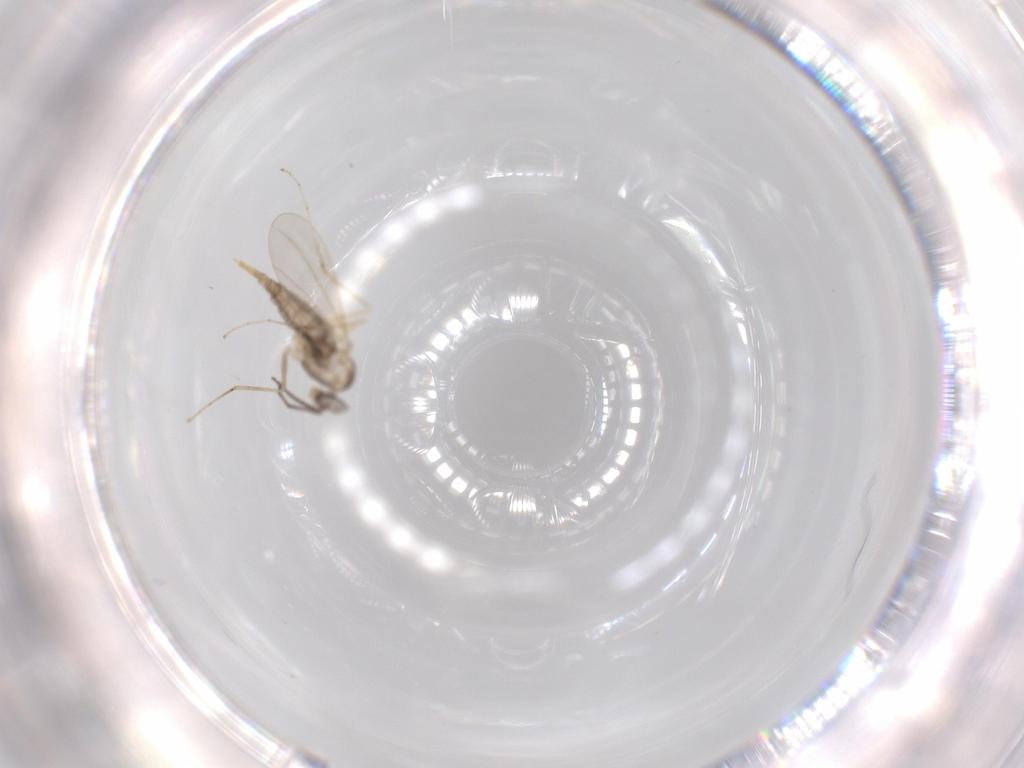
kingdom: Animalia
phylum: Arthropoda
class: Insecta
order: Diptera
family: Cecidomyiidae
